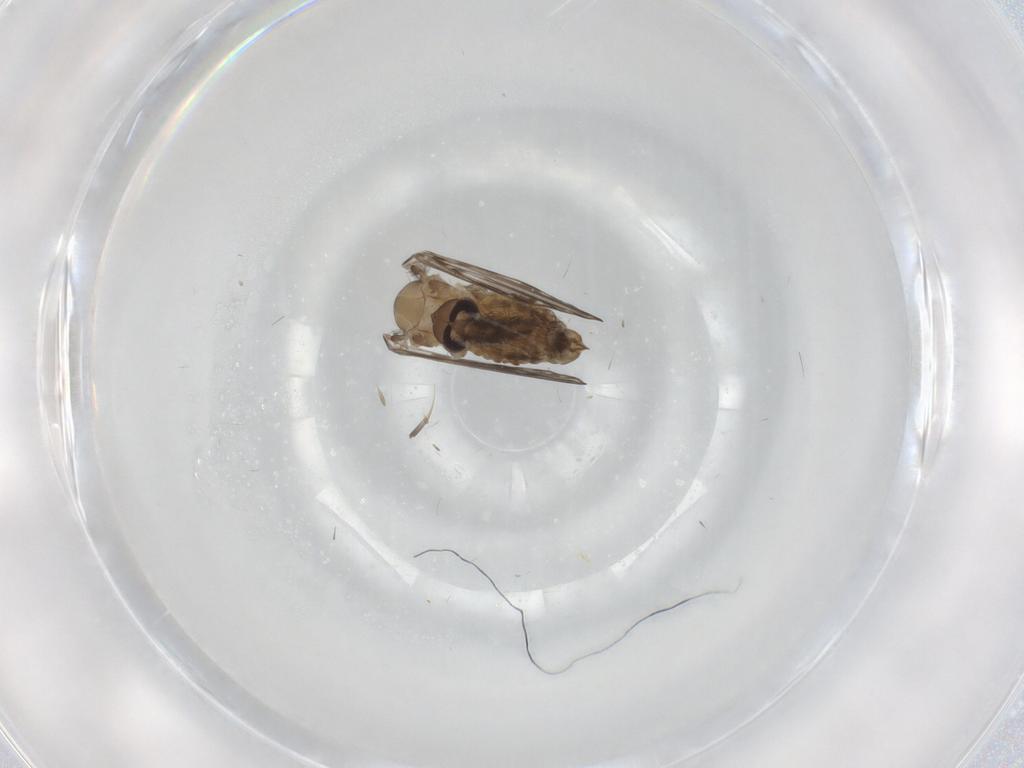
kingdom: Animalia
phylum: Arthropoda
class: Insecta
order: Diptera
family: Psychodidae
